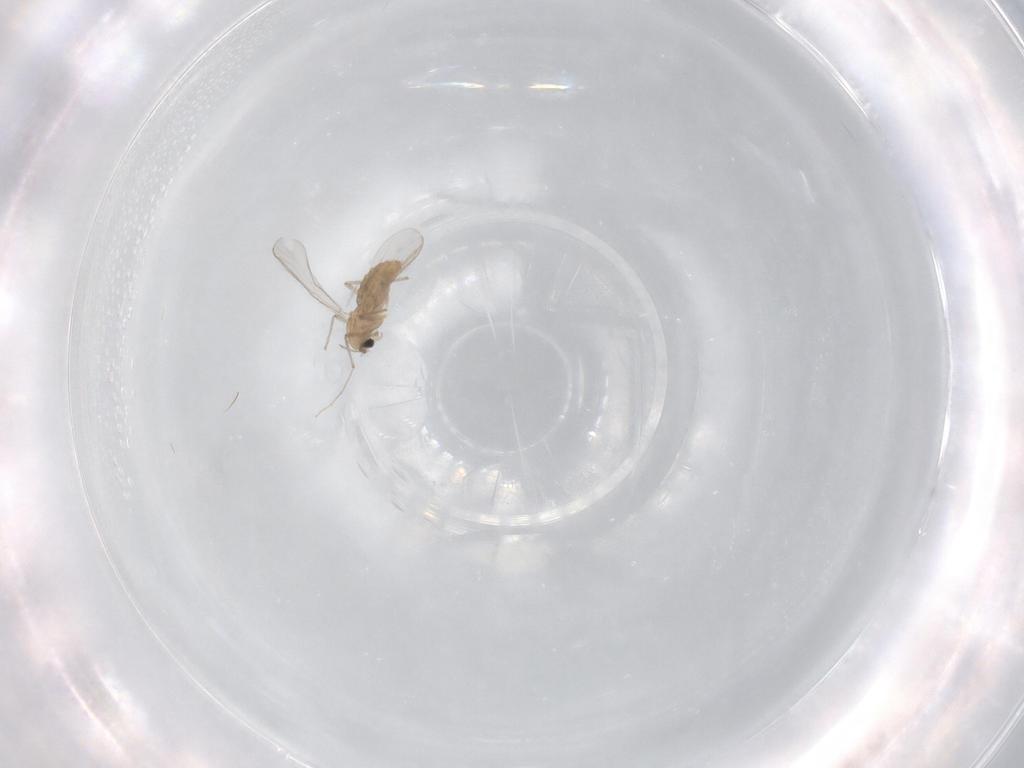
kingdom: Animalia
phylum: Arthropoda
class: Insecta
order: Diptera
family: Chironomidae
